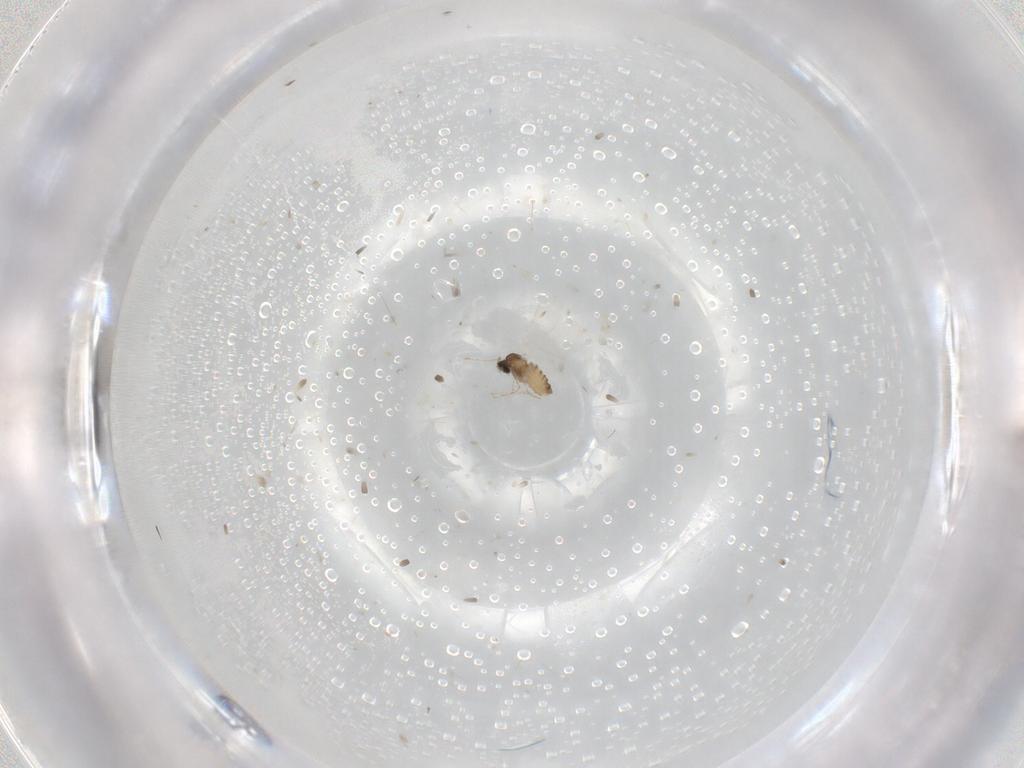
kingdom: Animalia
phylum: Arthropoda
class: Insecta
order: Diptera
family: Cecidomyiidae
